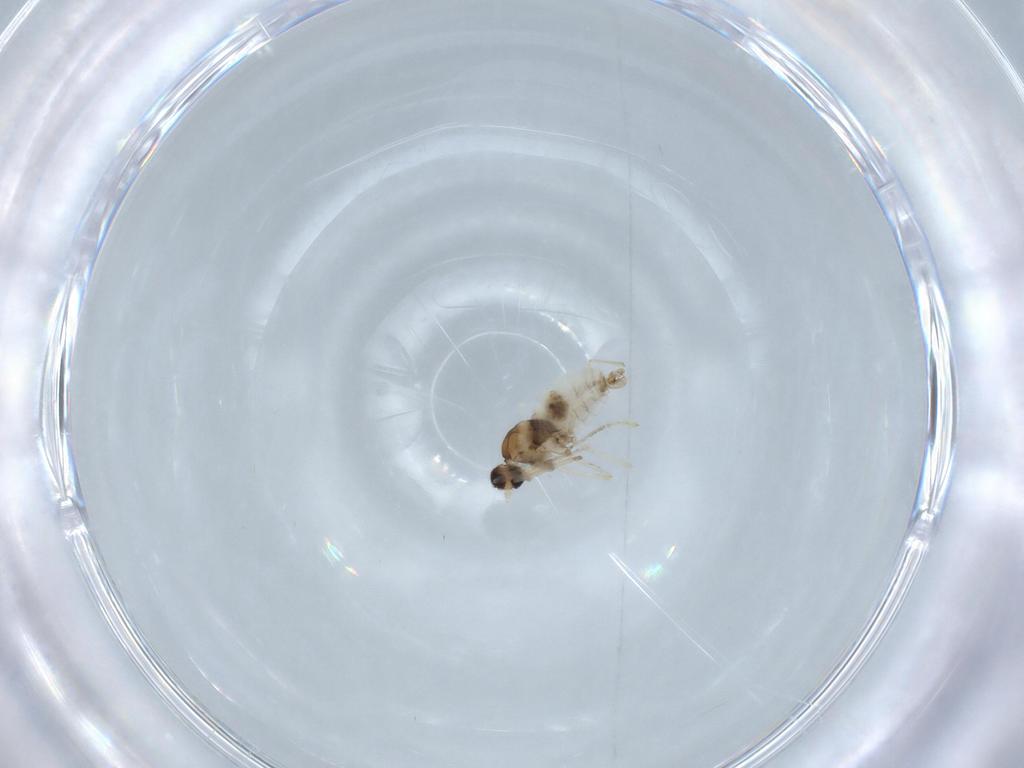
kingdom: Animalia
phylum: Arthropoda
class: Insecta
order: Diptera
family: Cecidomyiidae
